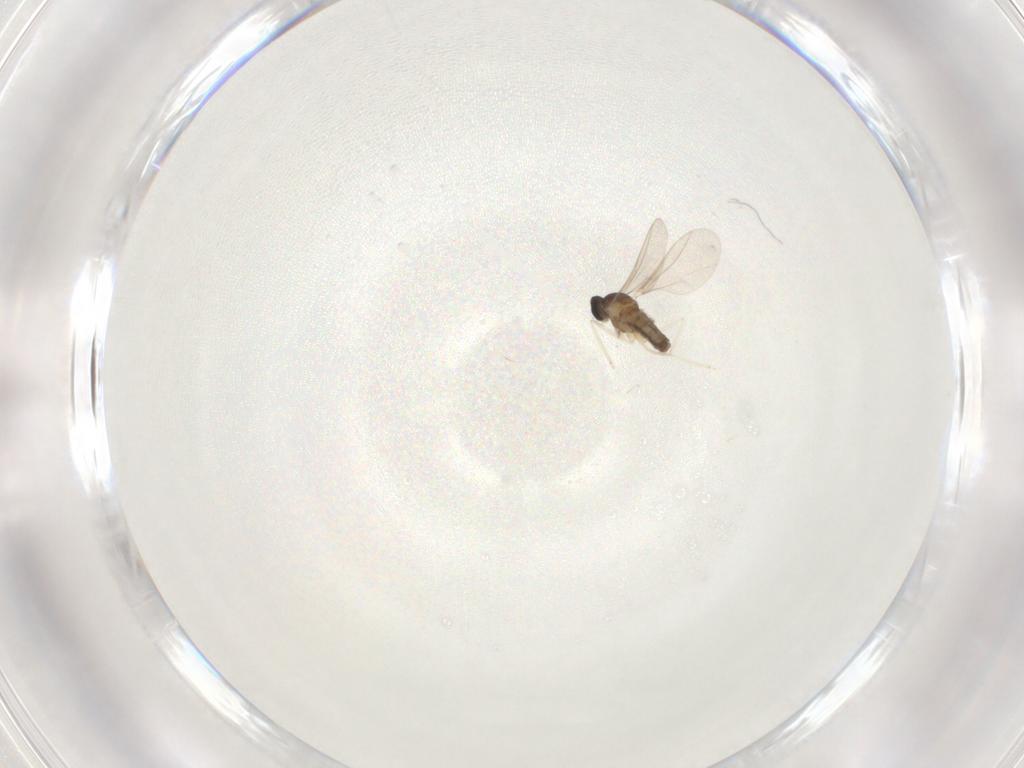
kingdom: Animalia
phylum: Arthropoda
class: Insecta
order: Diptera
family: Cecidomyiidae
